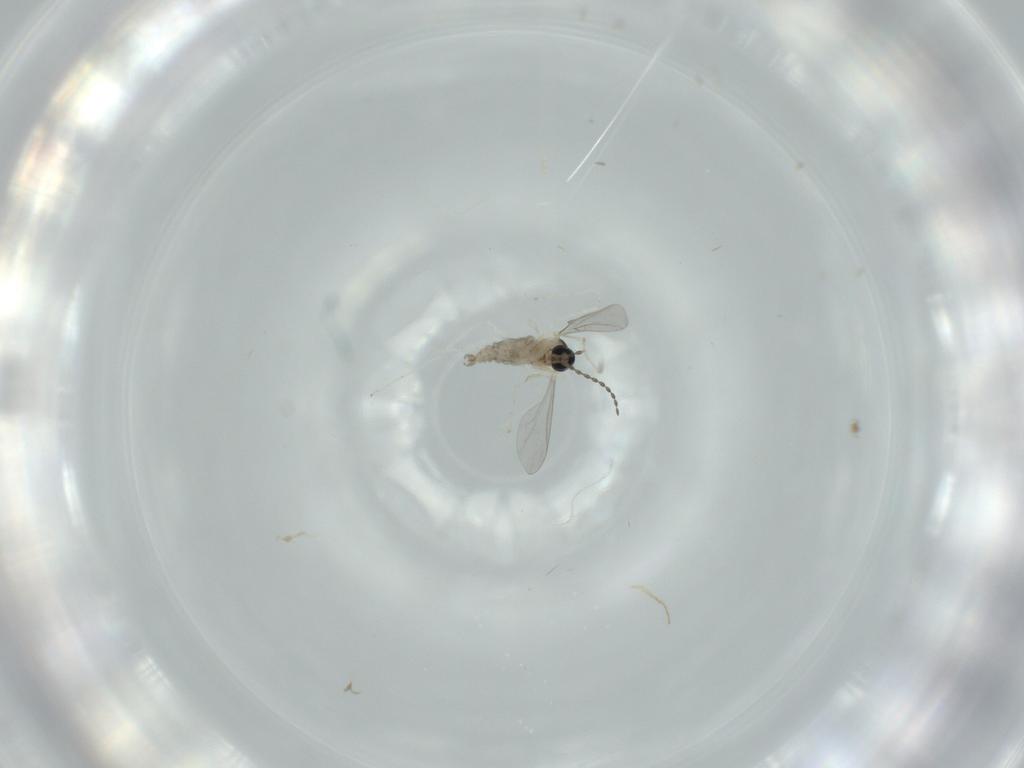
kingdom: Animalia
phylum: Arthropoda
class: Insecta
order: Diptera
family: Cecidomyiidae
